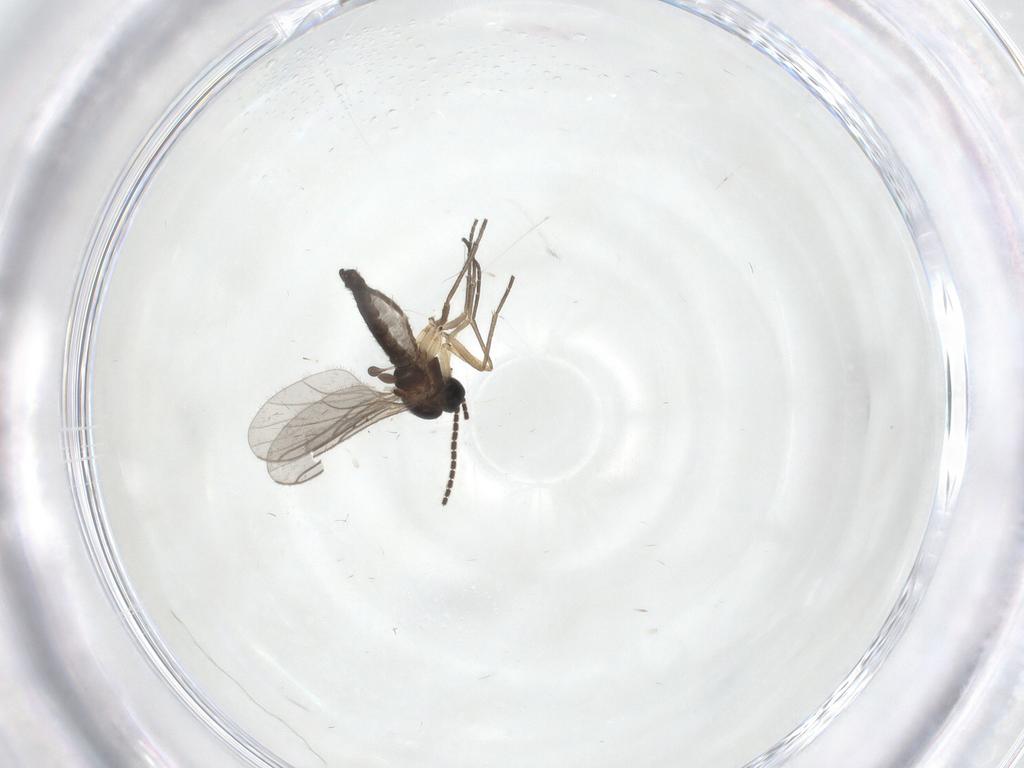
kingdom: Animalia
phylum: Arthropoda
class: Insecta
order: Diptera
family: Sciaridae
